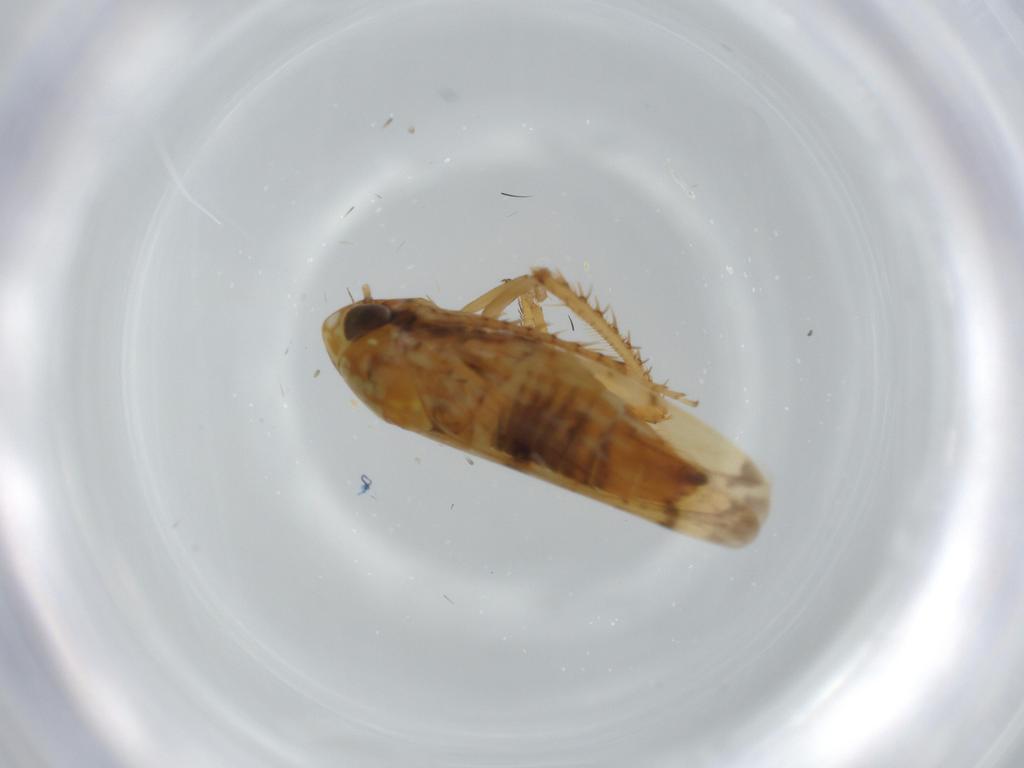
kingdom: Animalia
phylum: Arthropoda
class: Insecta
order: Hemiptera
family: Cicadellidae
